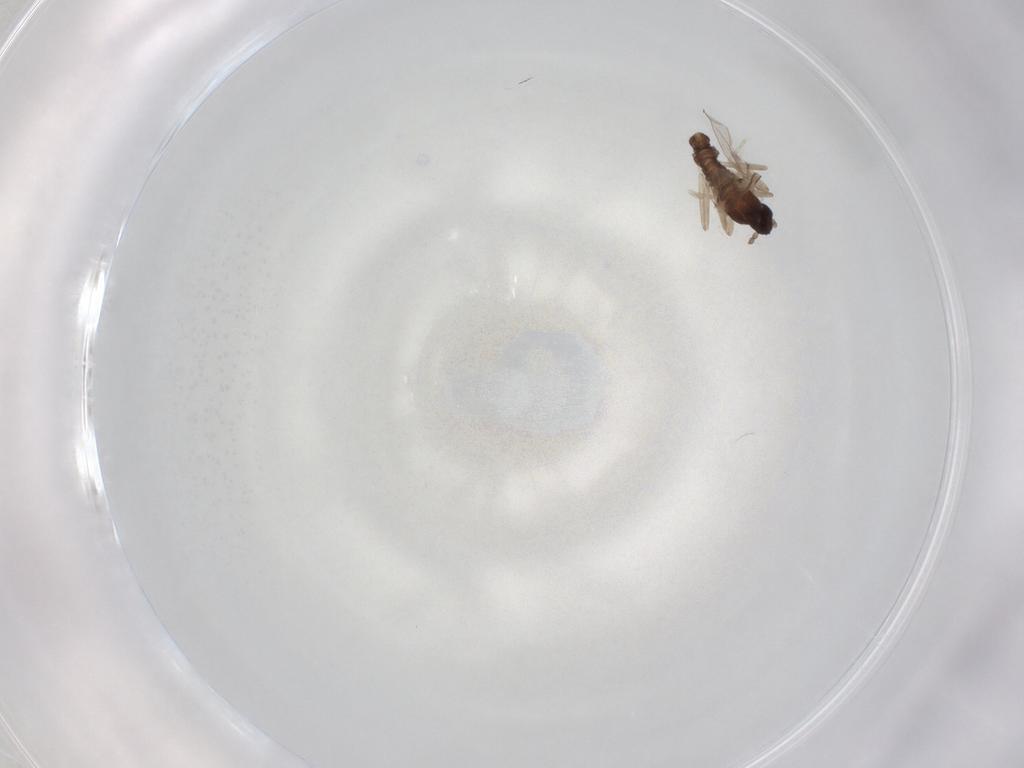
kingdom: Animalia
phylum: Arthropoda
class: Insecta
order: Diptera
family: Cecidomyiidae
